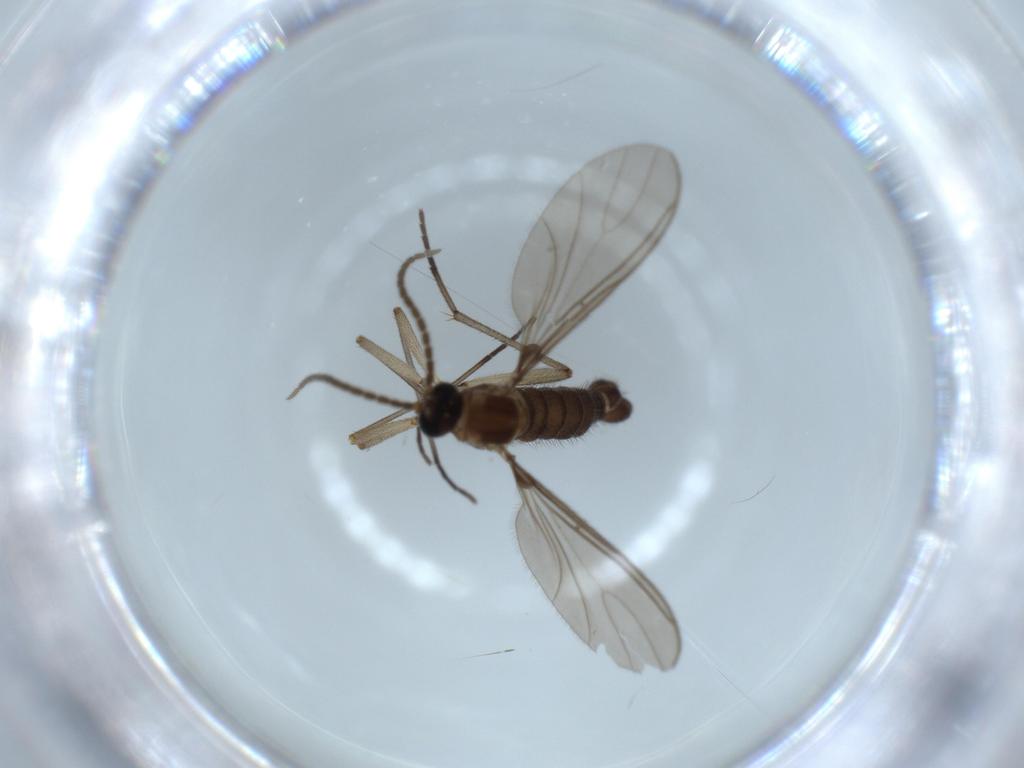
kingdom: Animalia
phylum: Arthropoda
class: Insecta
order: Diptera
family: Sciaridae
